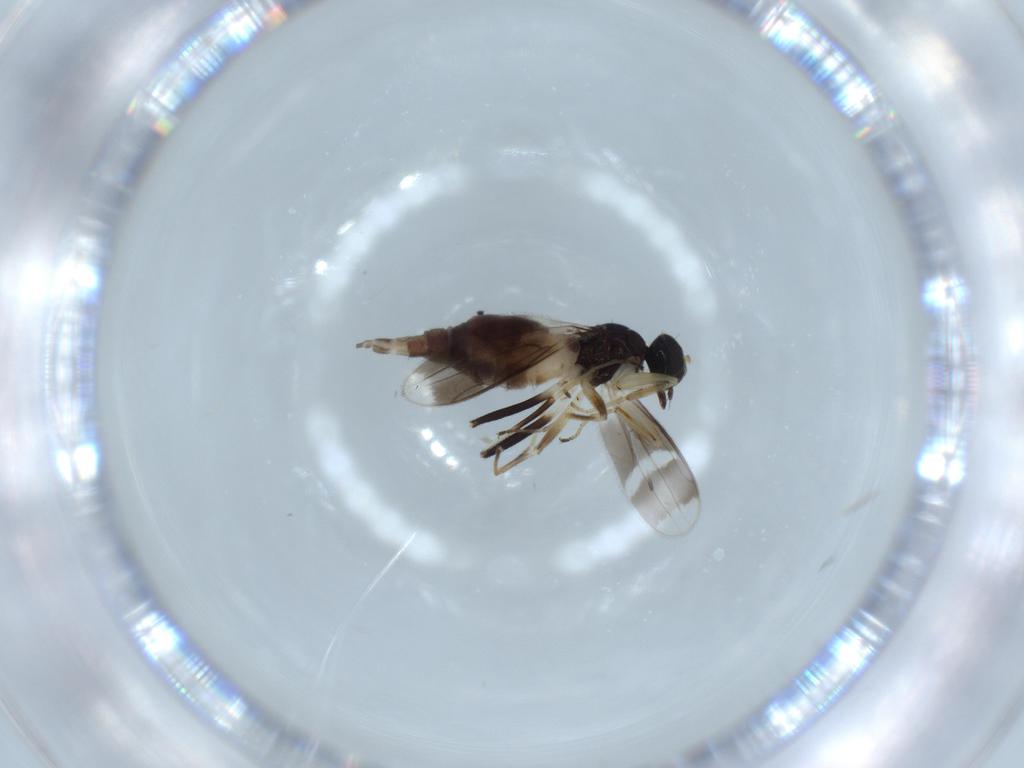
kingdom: Animalia
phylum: Arthropoda
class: Insecta
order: Diptera
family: Hybotidae
